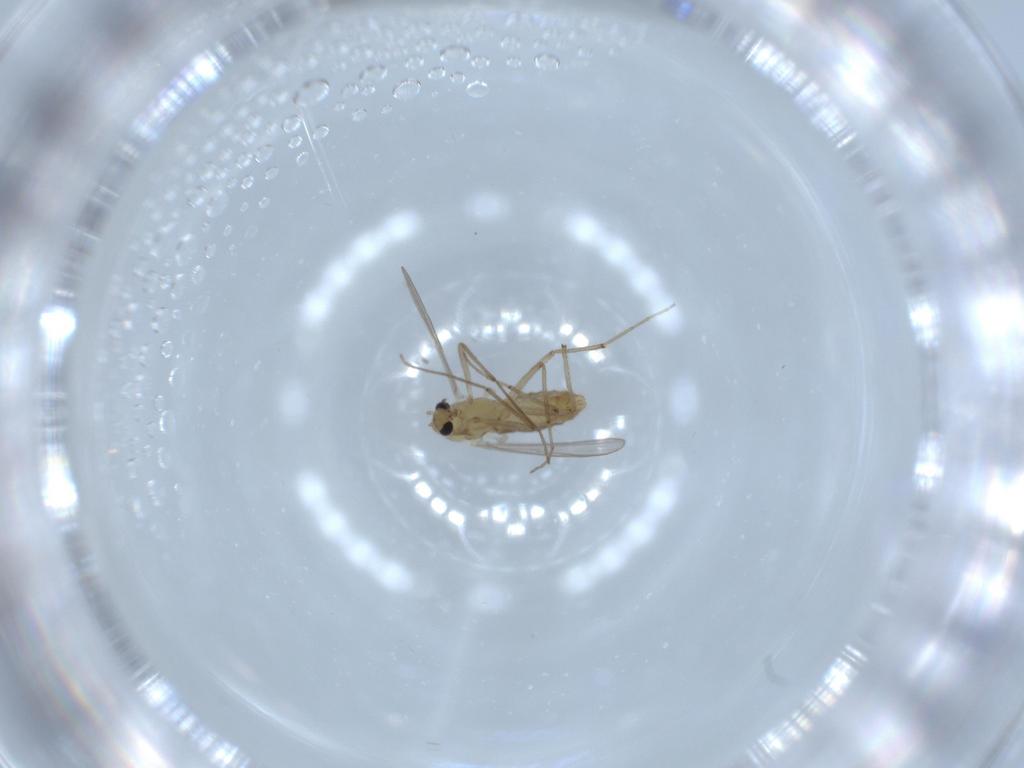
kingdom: Animalia
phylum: Arthropoda
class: Insecta
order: Diptera
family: Chironomidae
